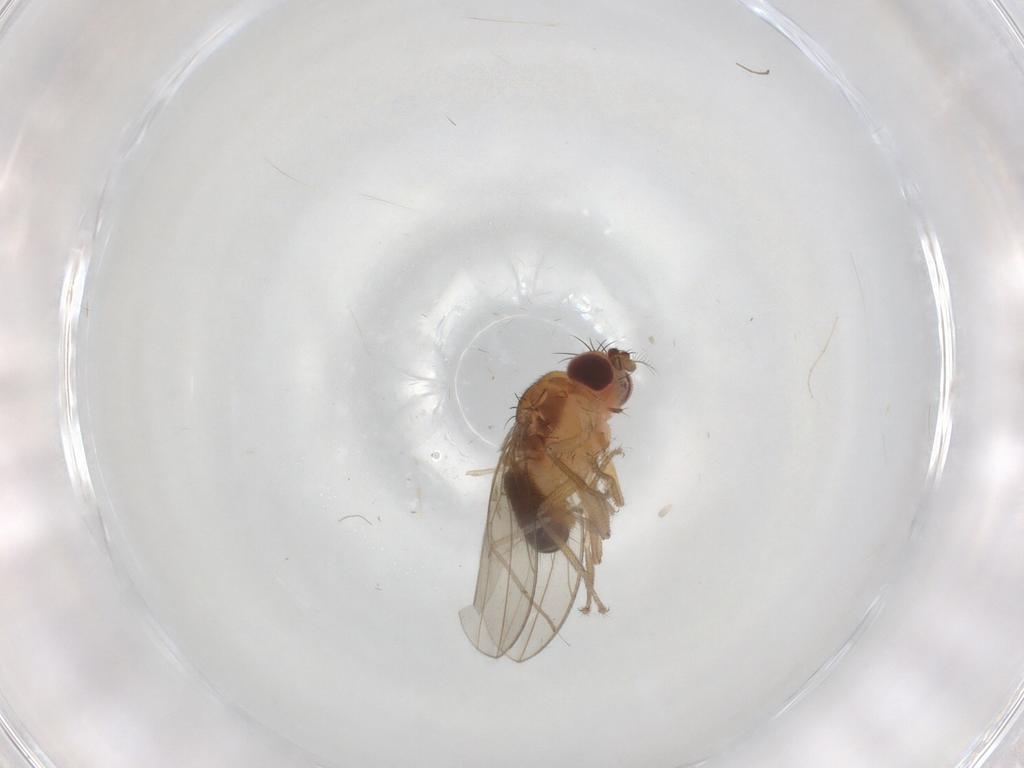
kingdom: Animalia
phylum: Arthropoda
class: Insecta
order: Diptera
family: Chironomidae
